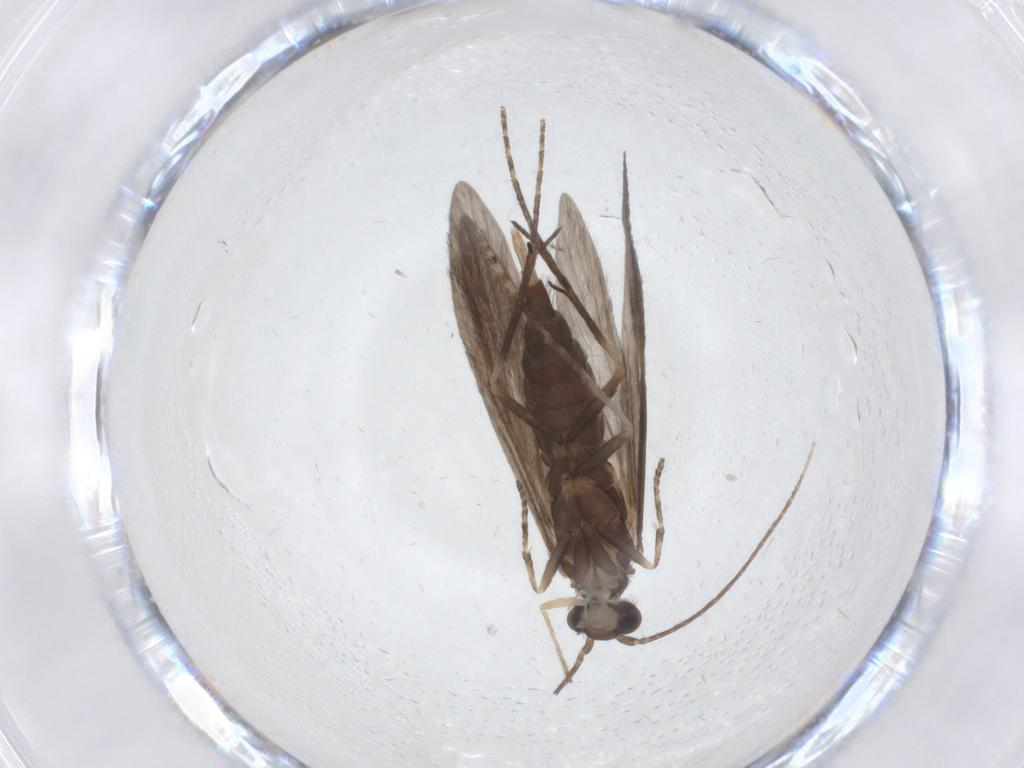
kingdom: Animalia
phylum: Arthropoda
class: Insecta
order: Trichoptera
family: Xiphocentronidae
